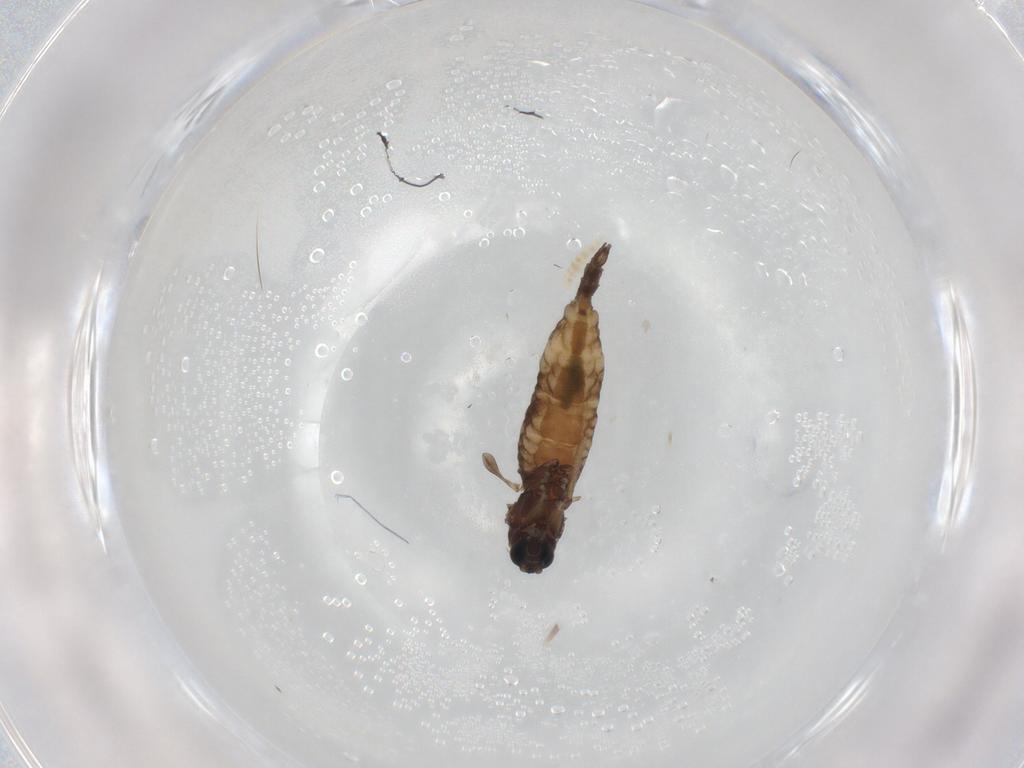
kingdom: Animalia
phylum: Arthropoda
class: Insecta
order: Diptera
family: Sciaridae
